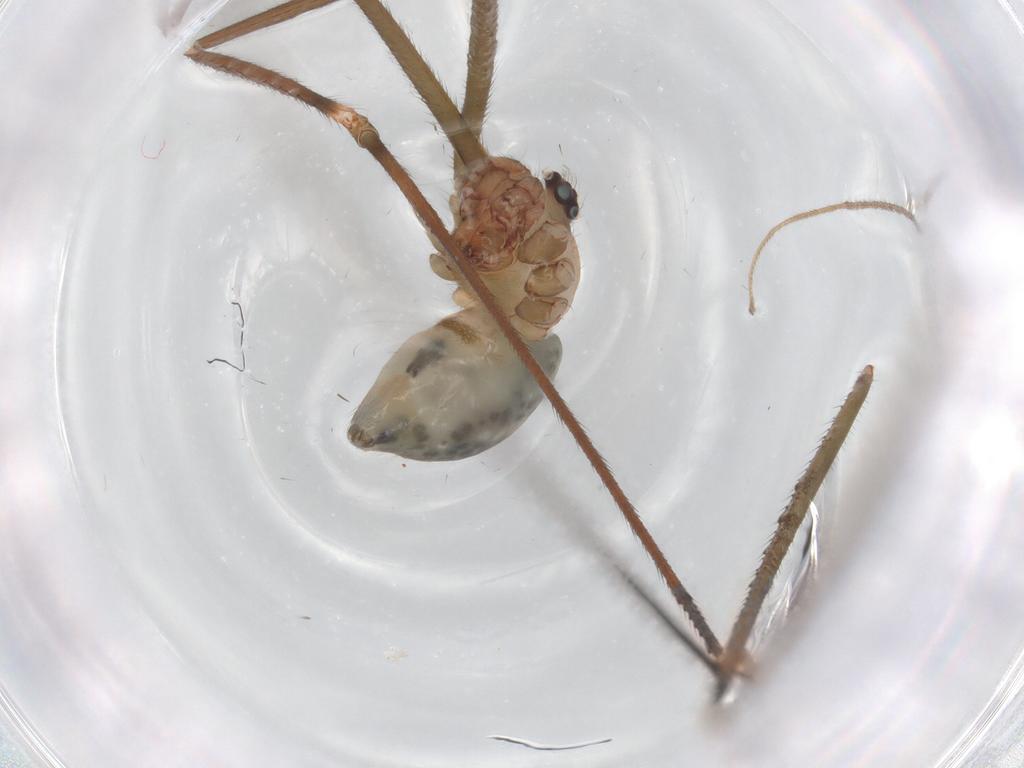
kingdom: Animalia
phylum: Arthropoda
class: Arachnida
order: Araneae
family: Pholcidae
